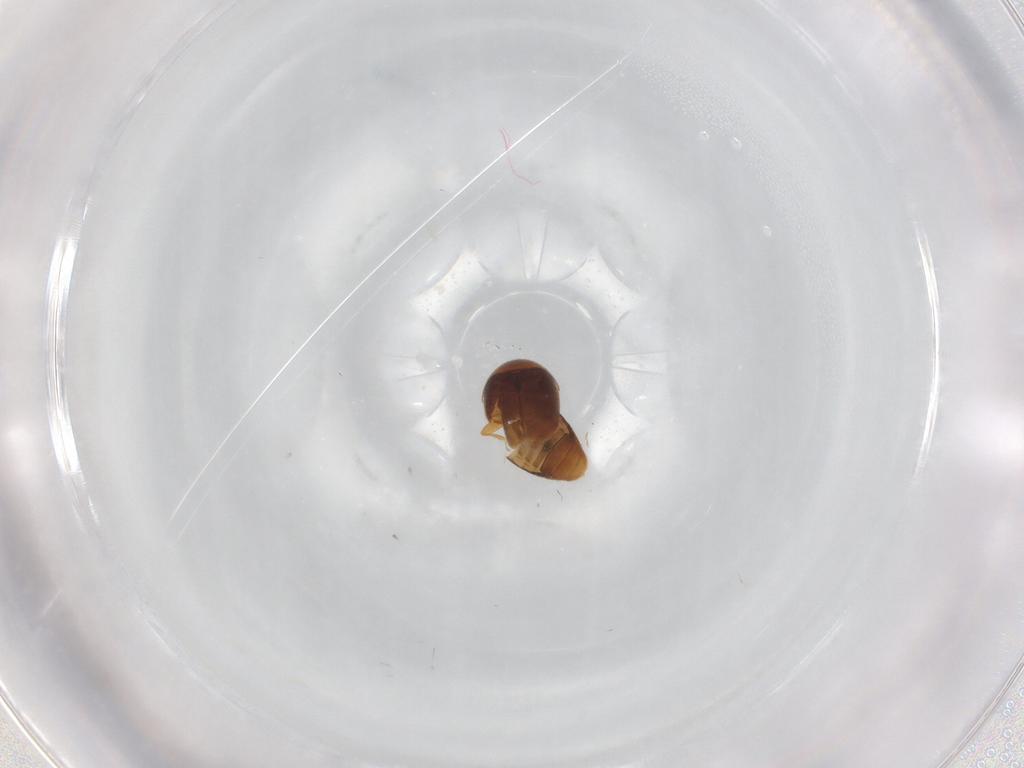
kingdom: Animalia
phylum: Arthropoda
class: Insecta
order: Coleoptera
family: Corylophidae
